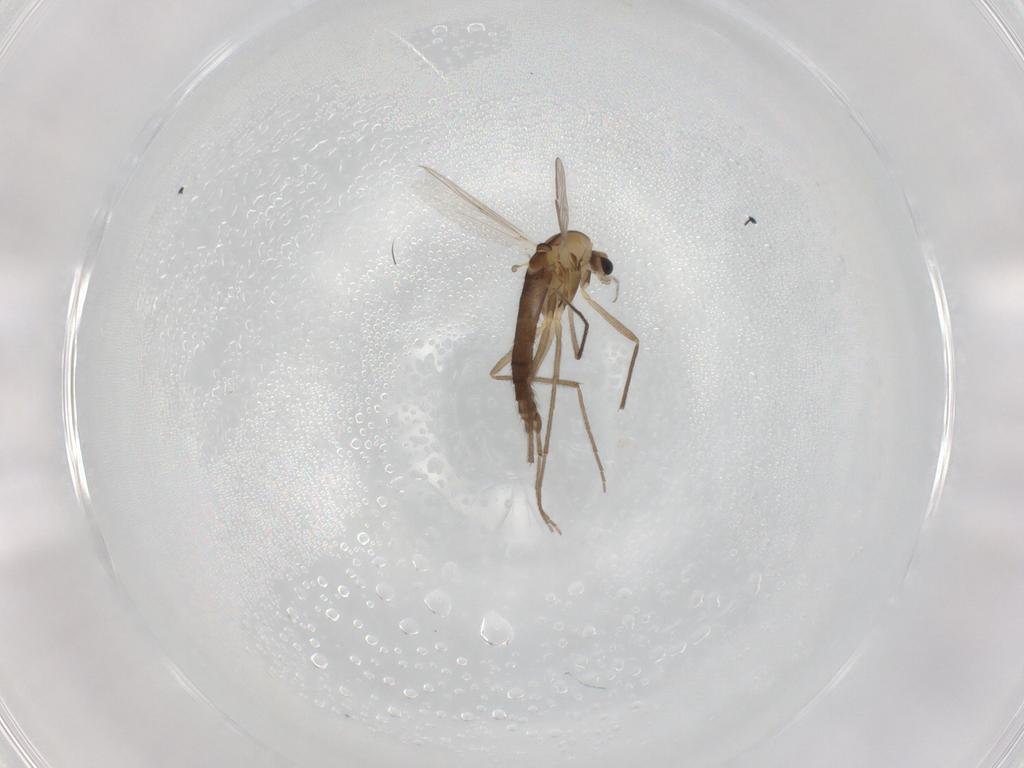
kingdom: Animalia
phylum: Arthropoda
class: Insecta
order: Diptera
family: Chironomidae
